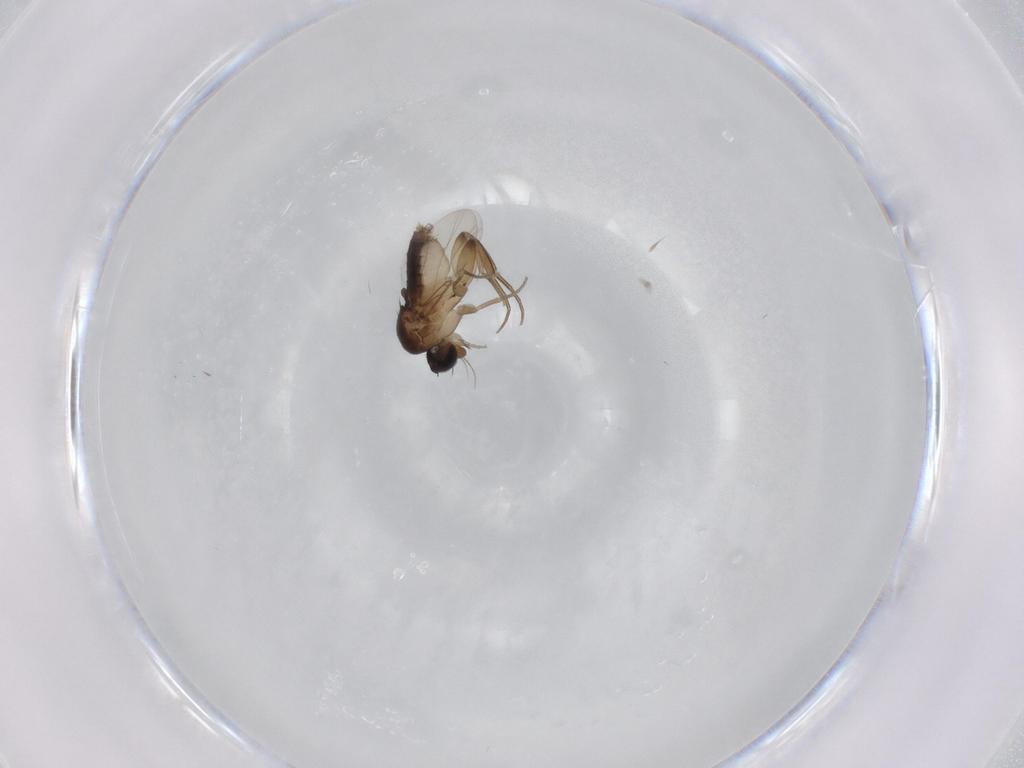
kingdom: Animalia
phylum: Arthropoda
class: Insecta
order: Diptera
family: Phoridae
